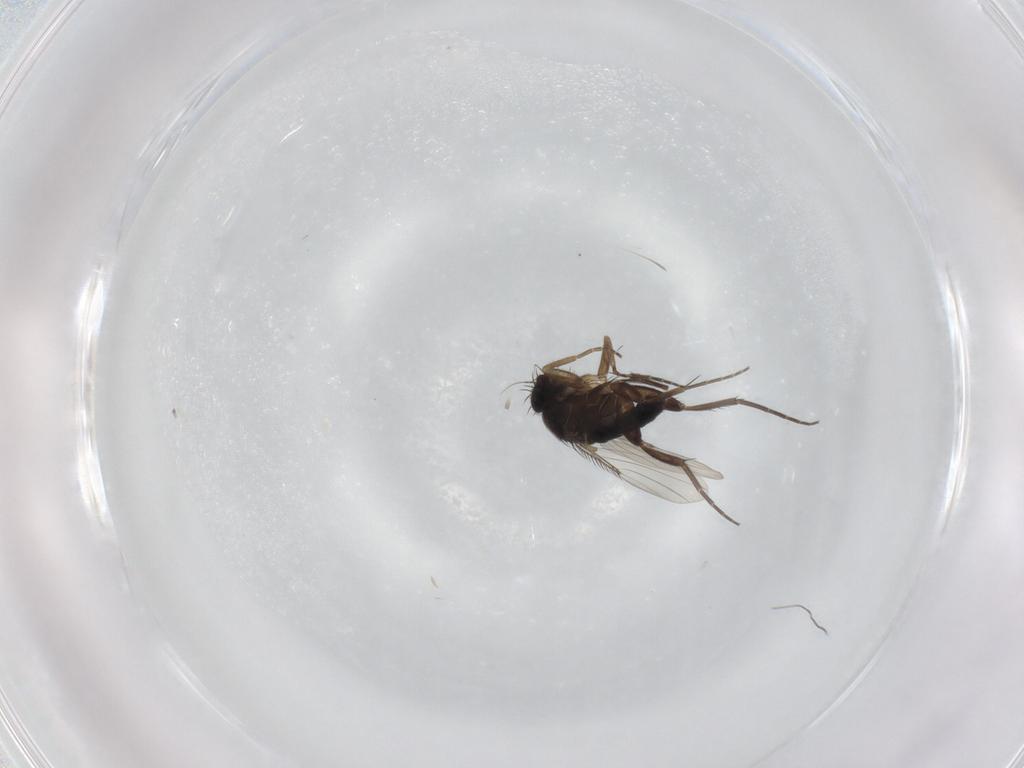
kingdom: Animalia
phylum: Arthropoda
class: Insecta
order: Diptera
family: Phoridae
